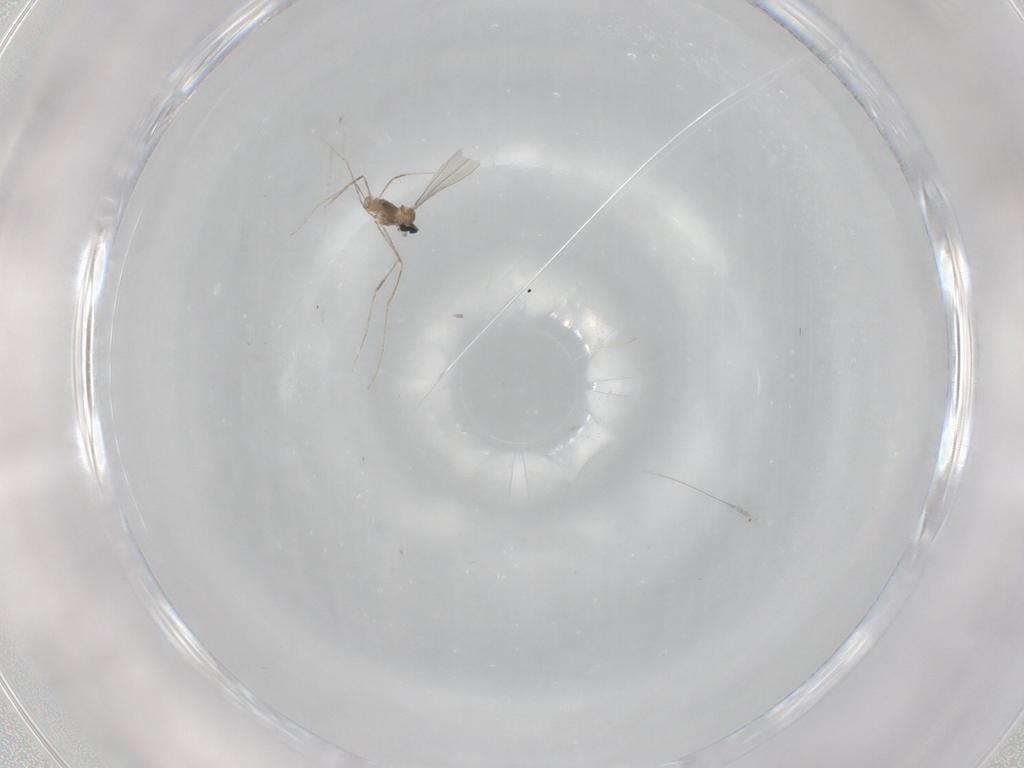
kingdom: Animalia
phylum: Arthropoda
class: Insecta
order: Diptera
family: Cecidomyiidae
